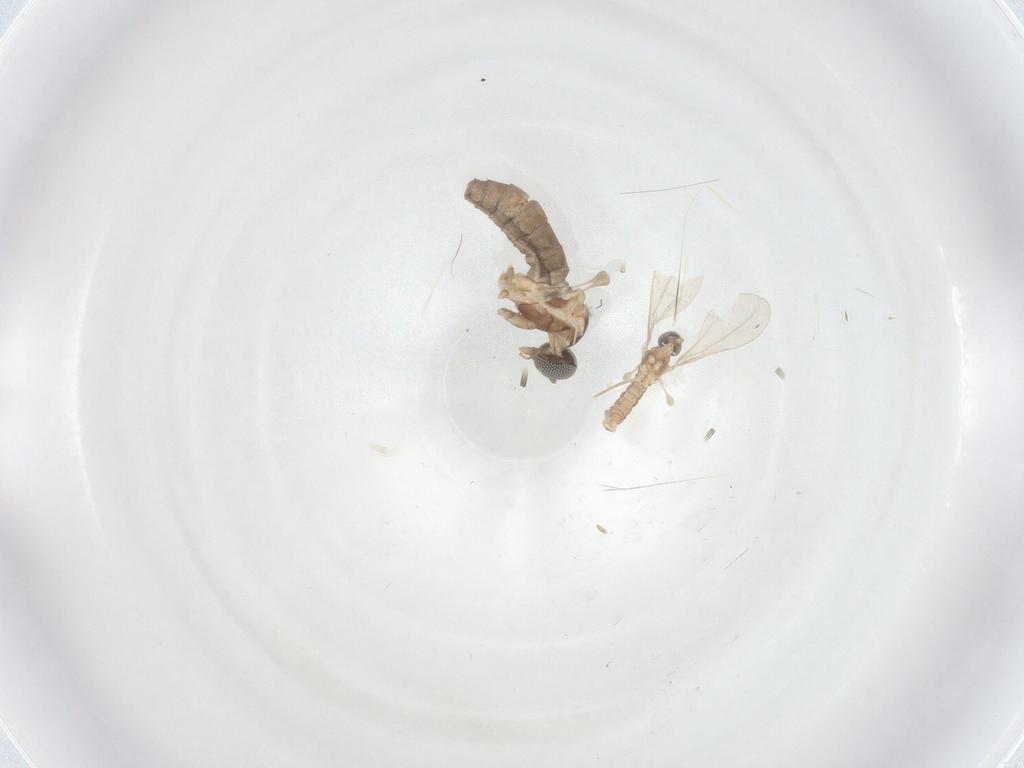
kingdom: Animalia
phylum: Arthropoda
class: Insecta
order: Diptera
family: Cecidomyiidae
